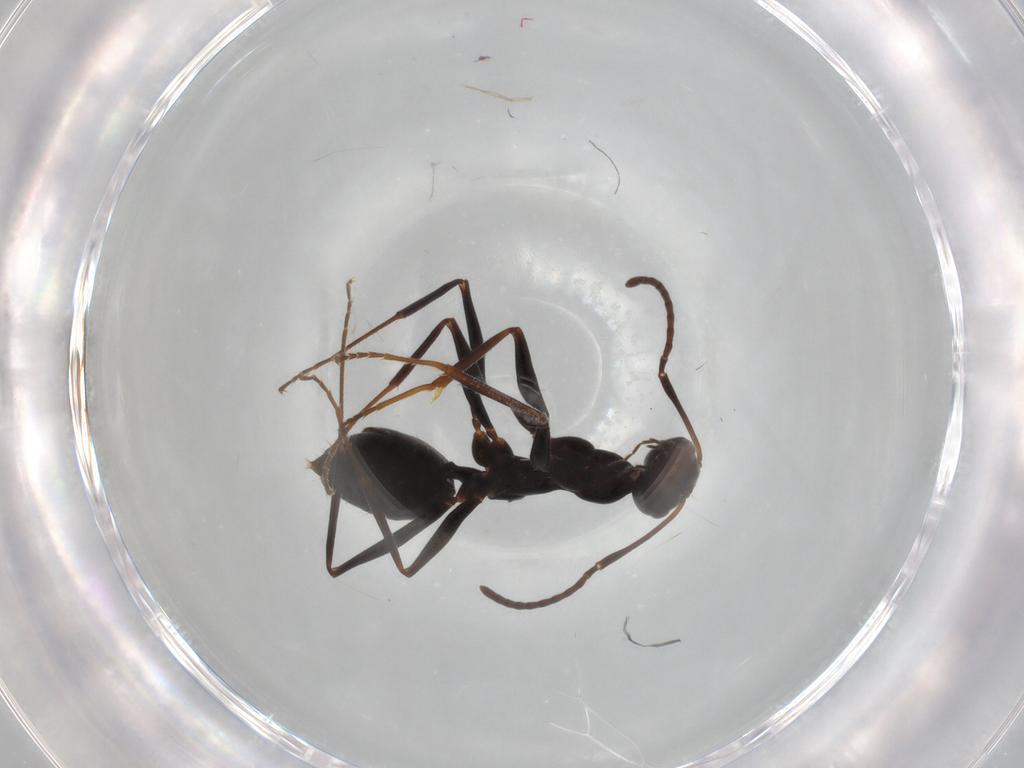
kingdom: Animalia
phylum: Arthropoda
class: Insecta
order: Hymenoptera
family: Formicidae
